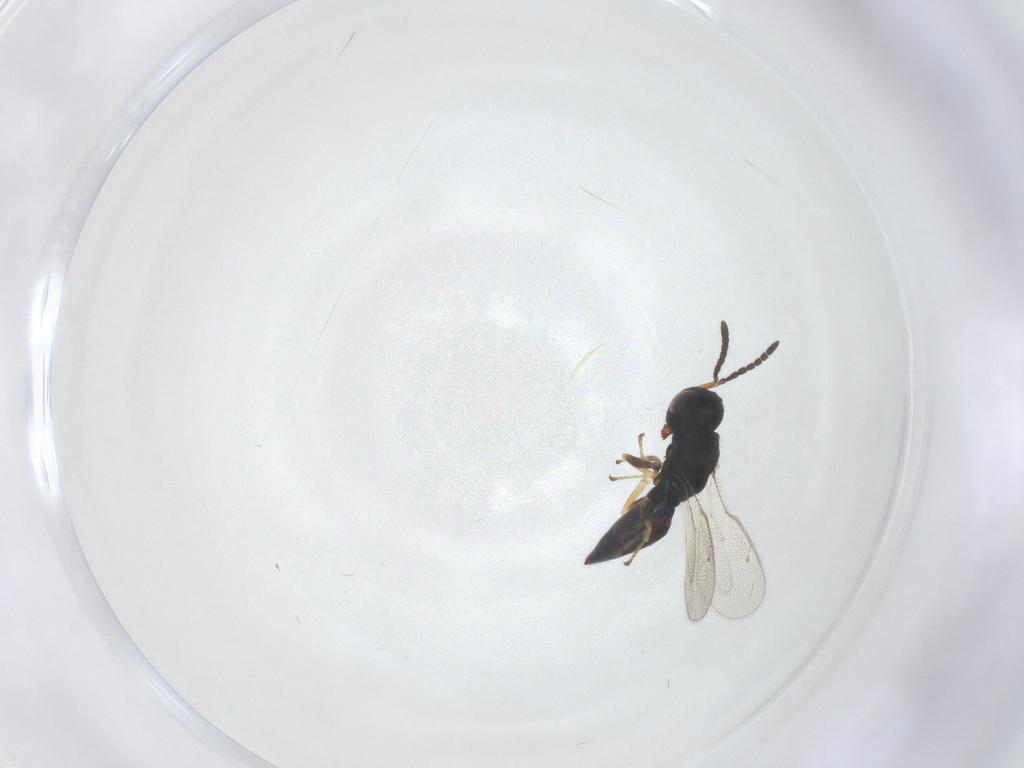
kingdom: Animalia
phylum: Arthropoda
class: Insecta
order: Hymenoptera
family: Pteromalidae
